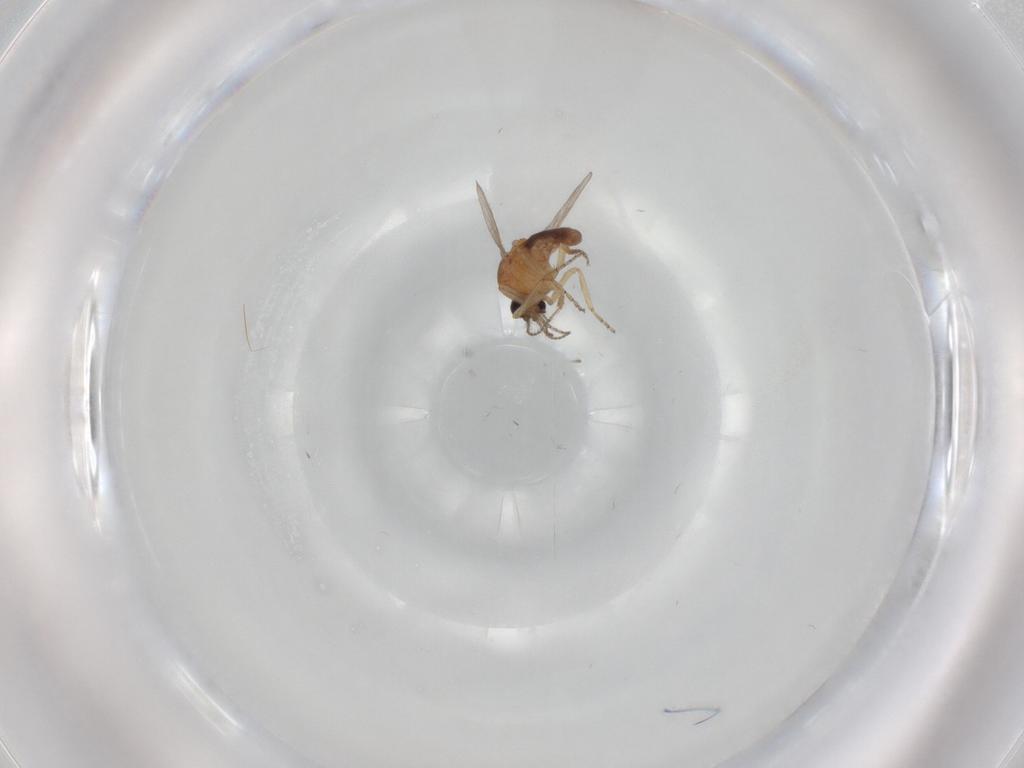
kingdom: Animalia
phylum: Arthropoda
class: Insecta
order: Diptera
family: Ceratopogonidae
